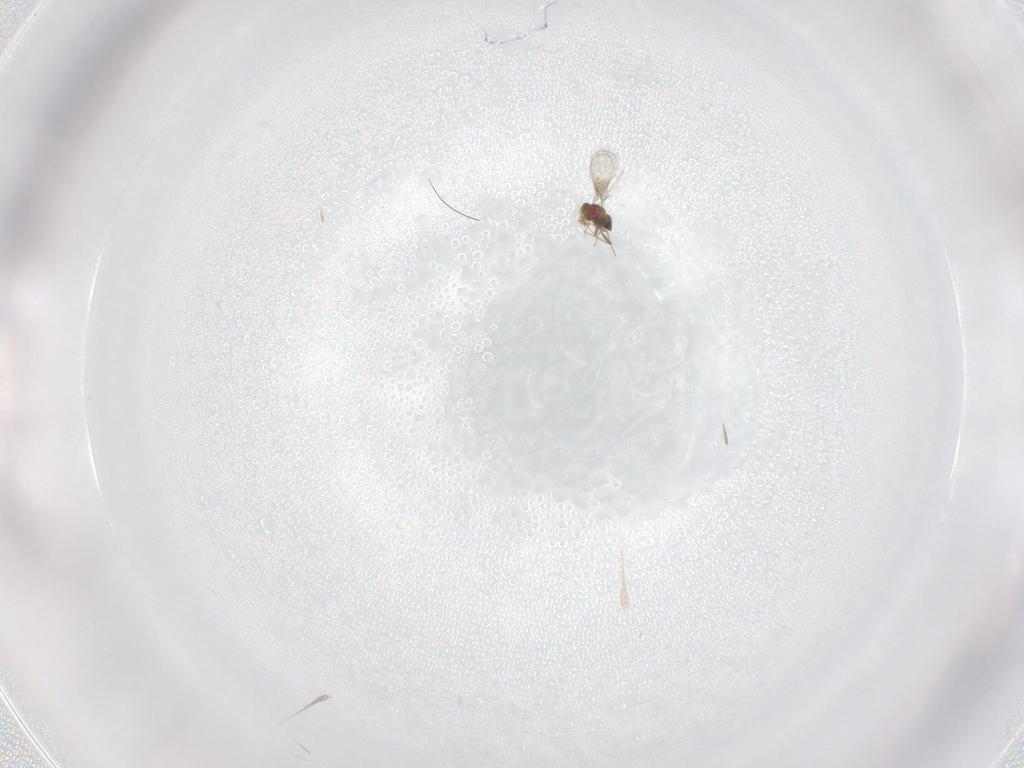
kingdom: Animalia
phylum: Arthropoda
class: Insecta
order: Hymenoptera
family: Trichogrammatidae
